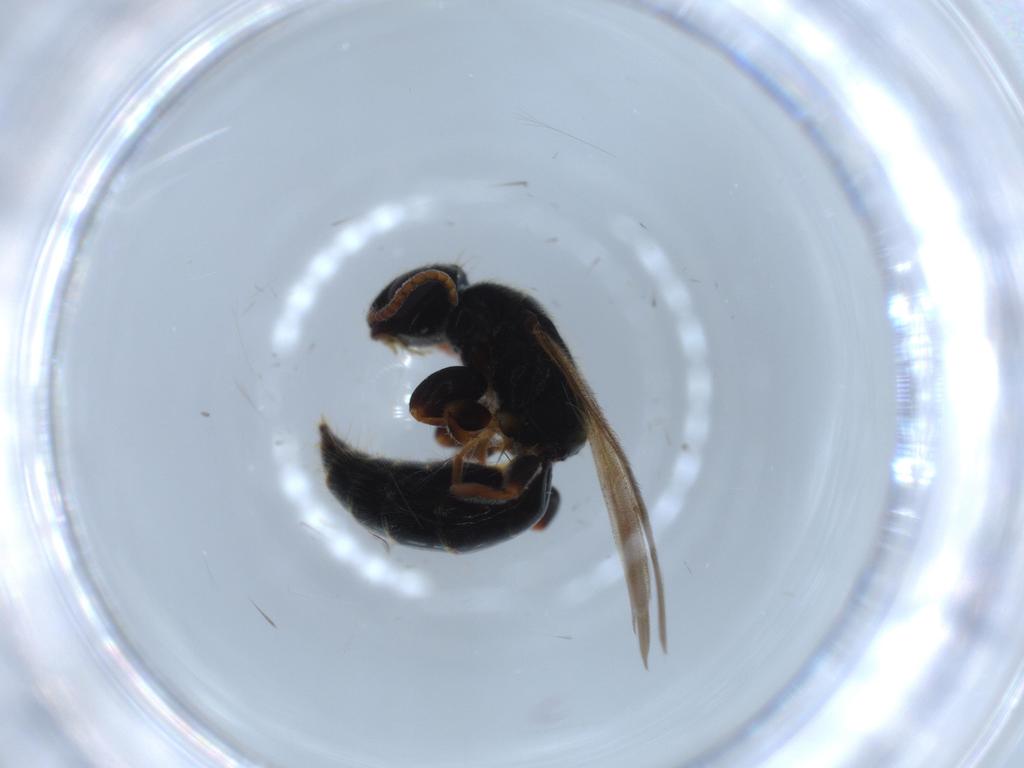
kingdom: Animalia
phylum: Arthropoda
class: Insecta
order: Hymenoptera
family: Bethylidae
